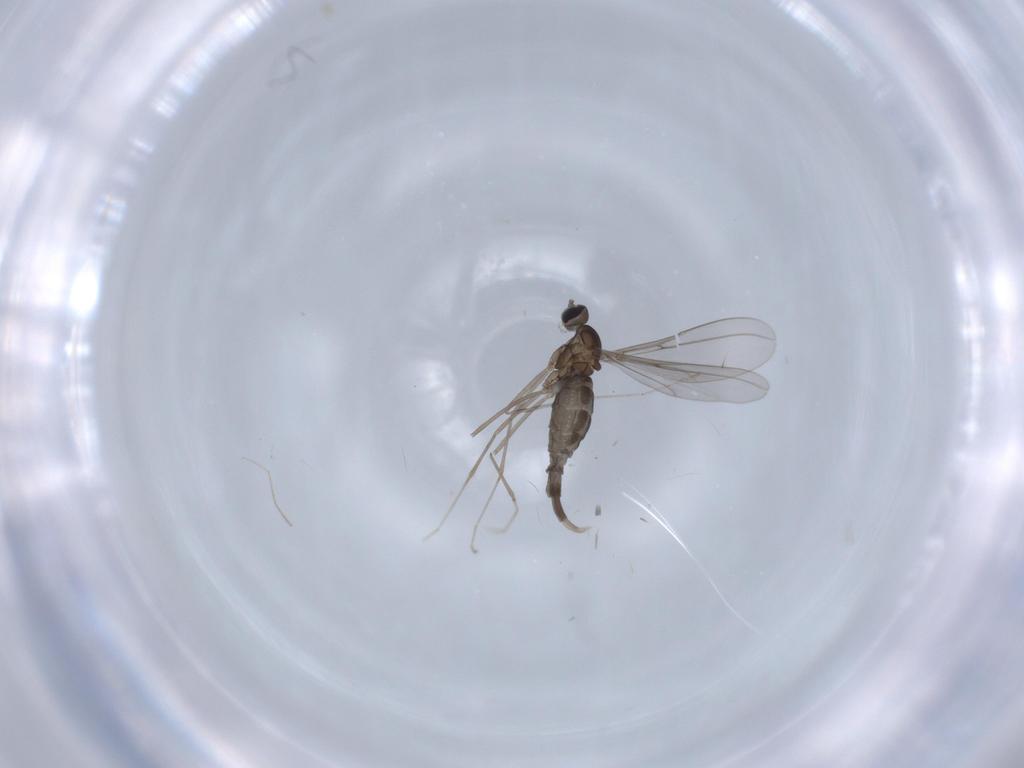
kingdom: Animalia
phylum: Arthropoda
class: Insecta
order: Diptera
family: Cecidomyiidae
